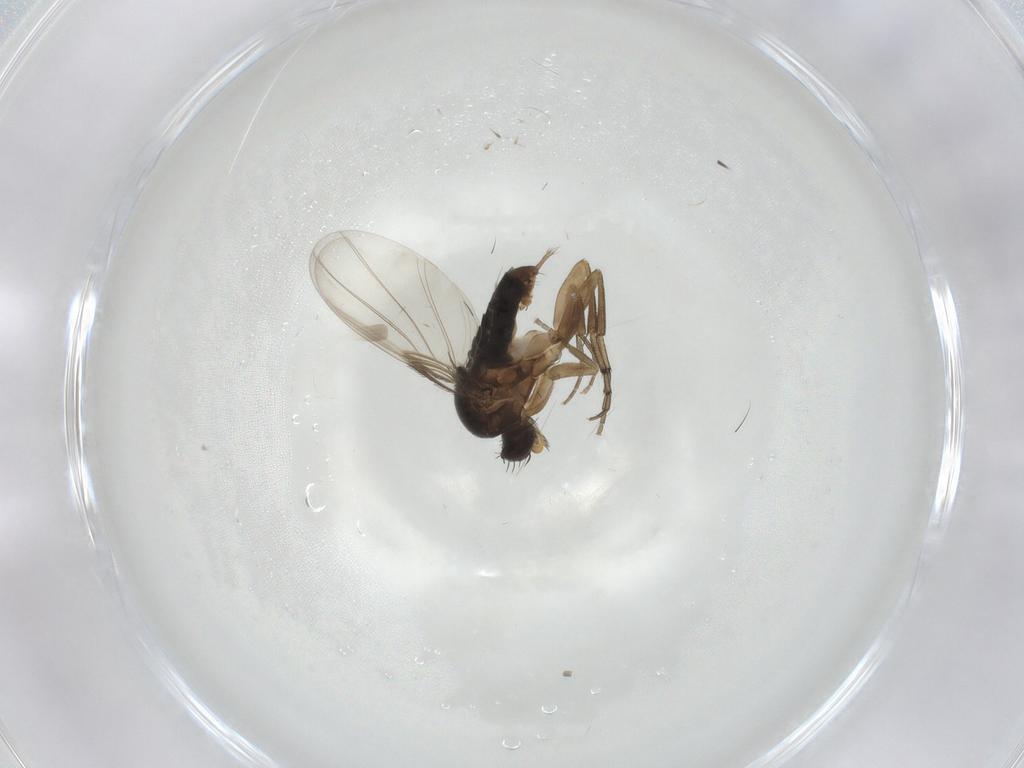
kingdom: Animalia
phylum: Arthropoda
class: Insecta
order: Diptera
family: Phoridae
